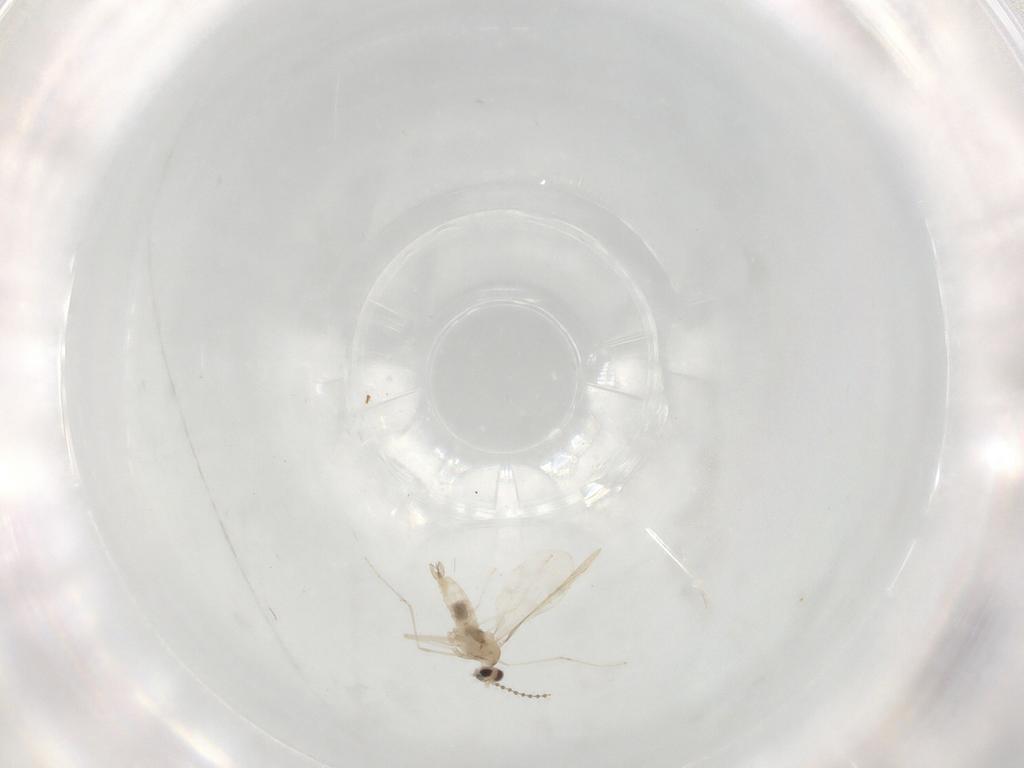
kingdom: Animalia
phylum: Arthropoda
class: Insecta
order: Diptera
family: Cecidomyiidae
